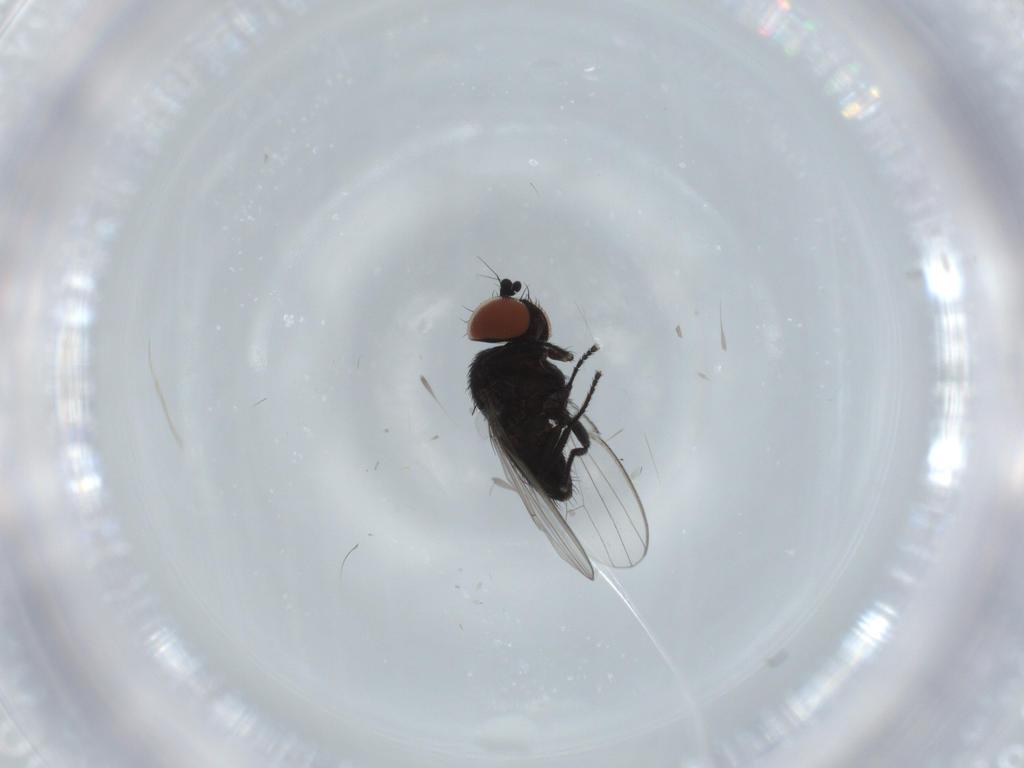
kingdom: Animalia
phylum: Arthropoda
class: Insecta
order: Diptera
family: Milichiidae
